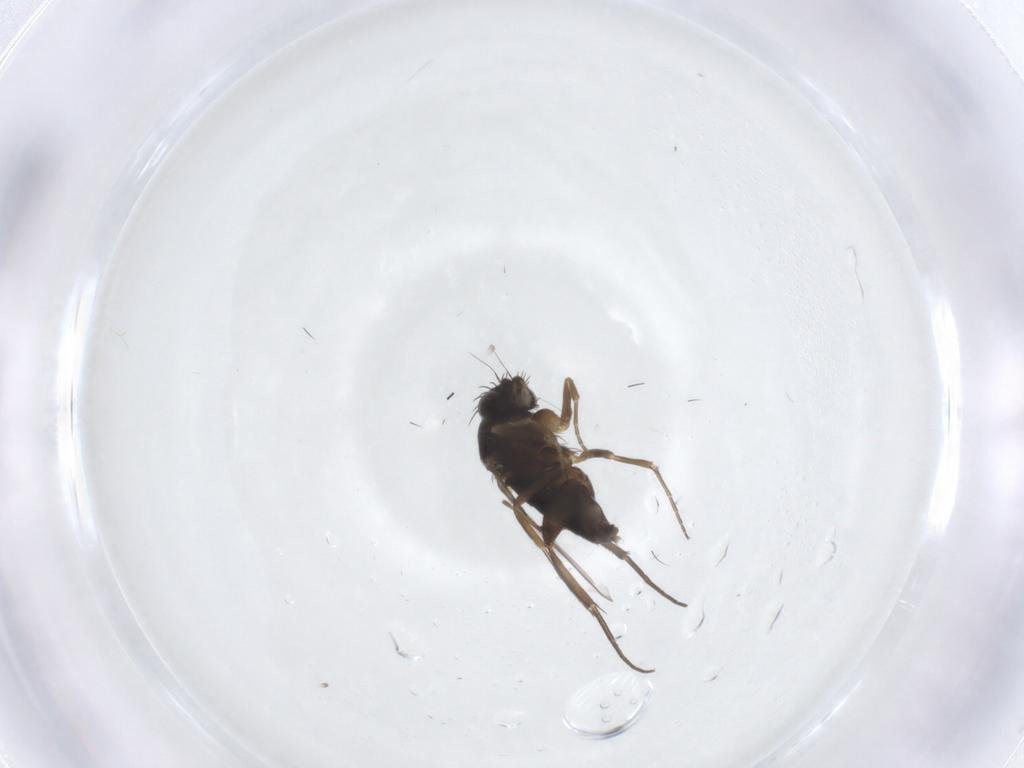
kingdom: Animalia
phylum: Arthropoda
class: Insecta
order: Diptera
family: Phoridae
